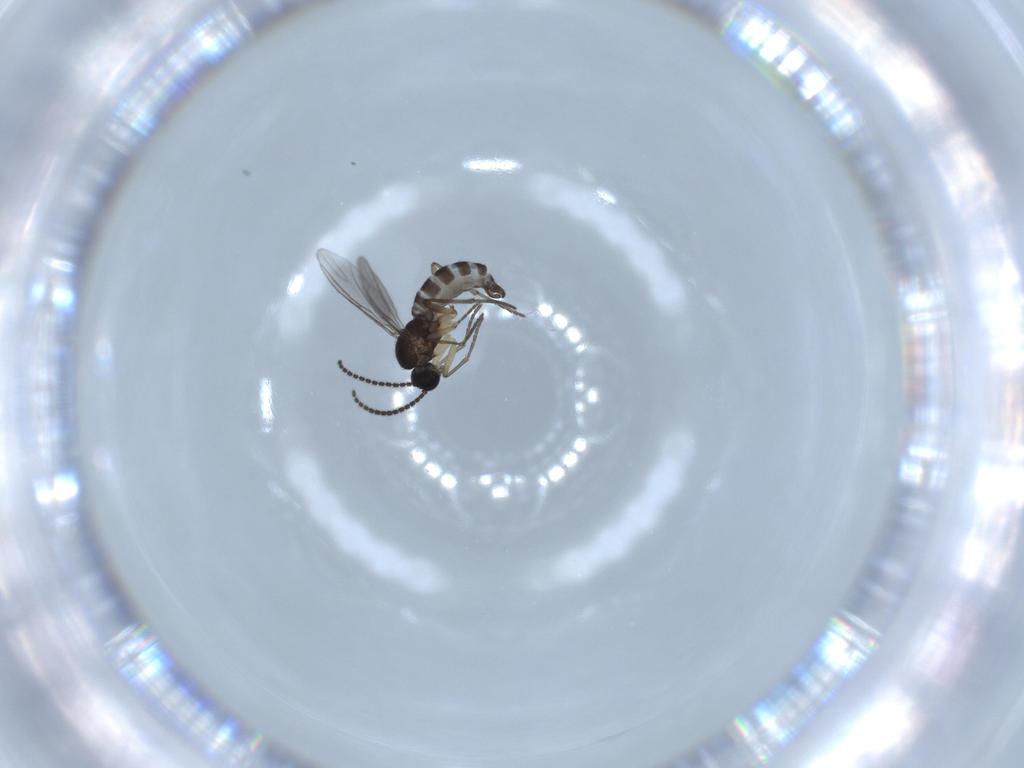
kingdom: Animalia
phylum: Arthropoda
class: Insecta
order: Diptera
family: Sciaridae
